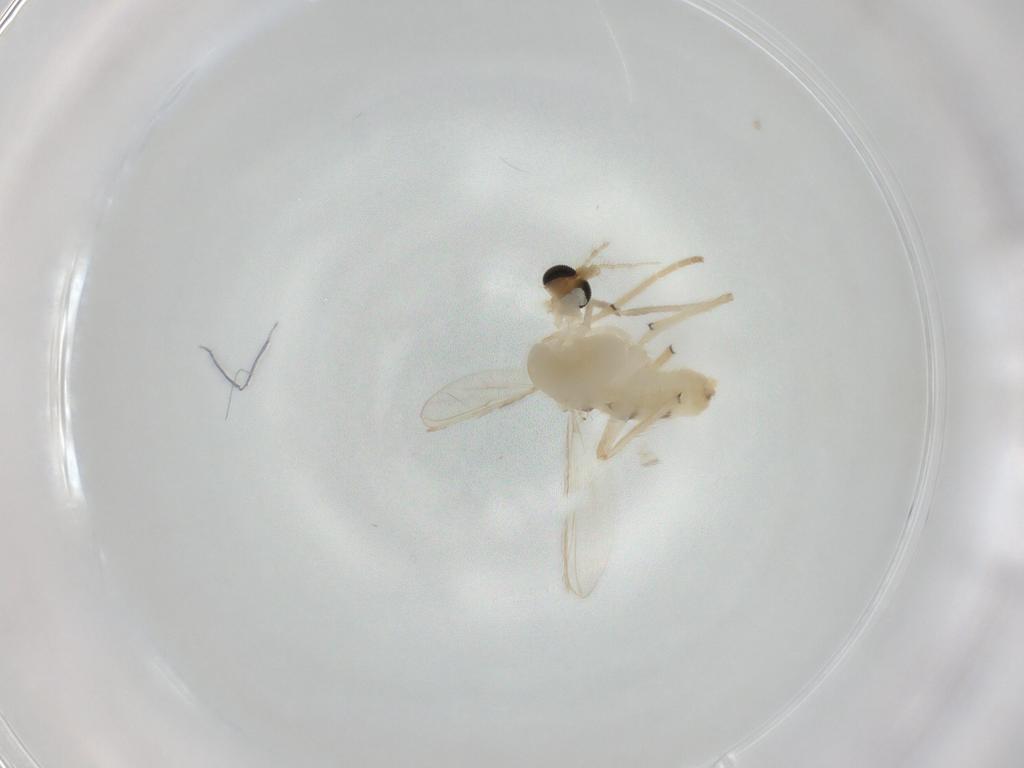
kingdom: Animalia
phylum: Arthropoda
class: Insecta
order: Diptera
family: Chironomidae
